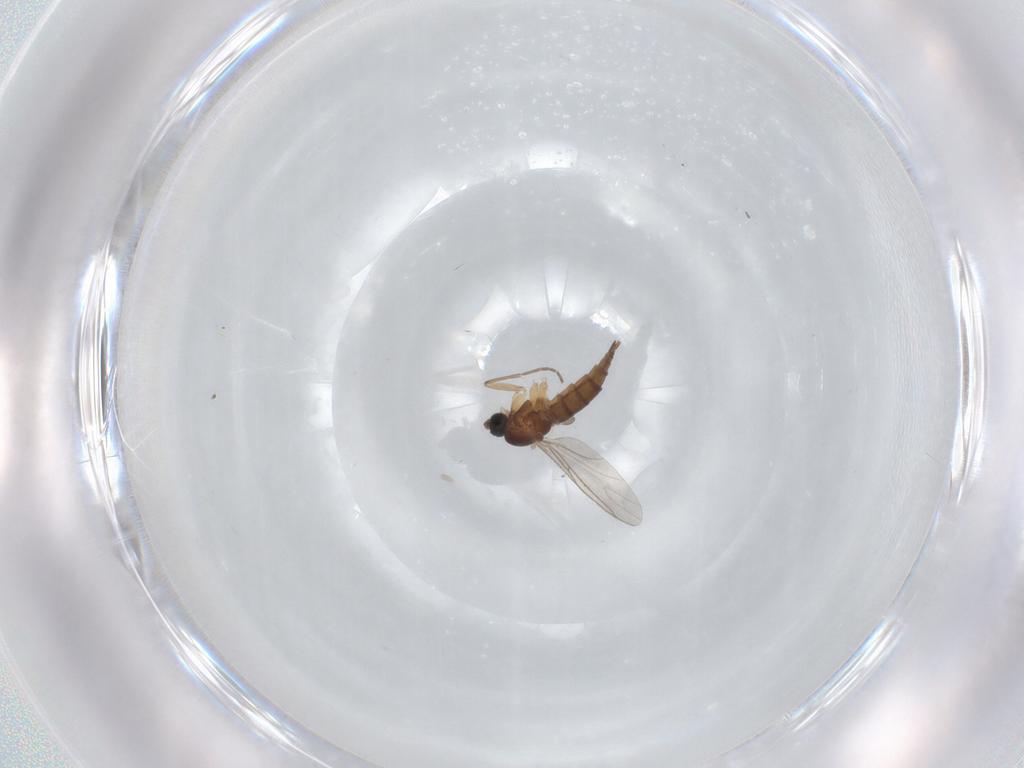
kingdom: Animalia
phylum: Arthropoda
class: Insecta
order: Diptera
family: Sciaridae
